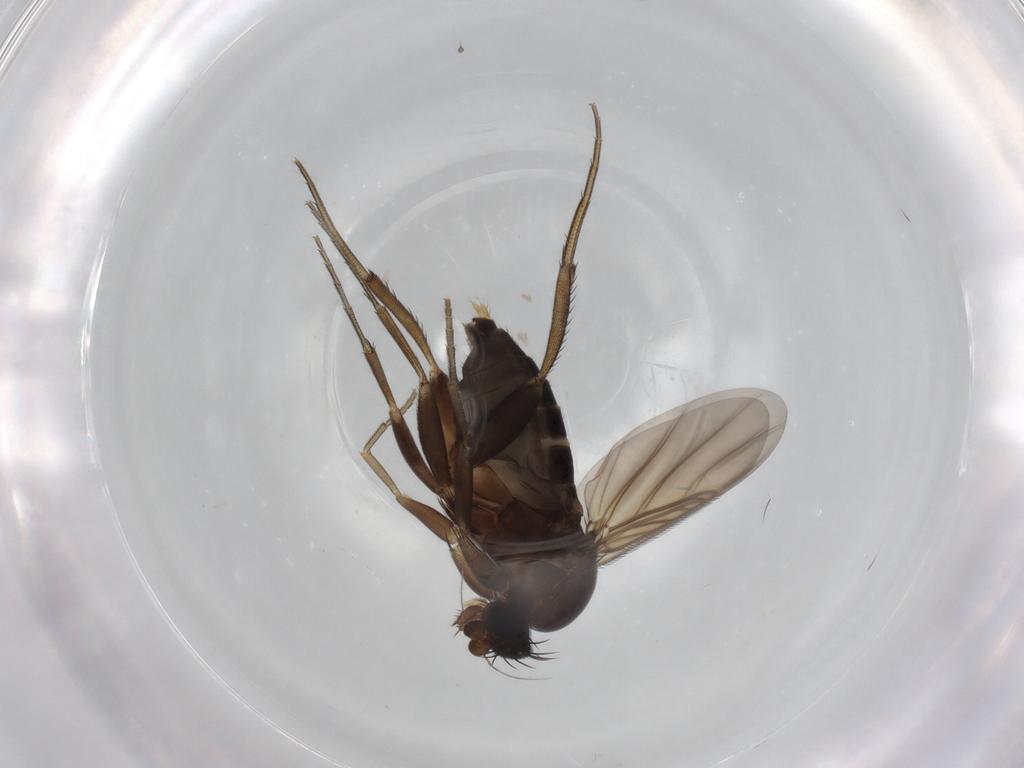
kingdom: Animalia
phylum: Arthropoda
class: Insecta
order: Diptera
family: Phoridae
